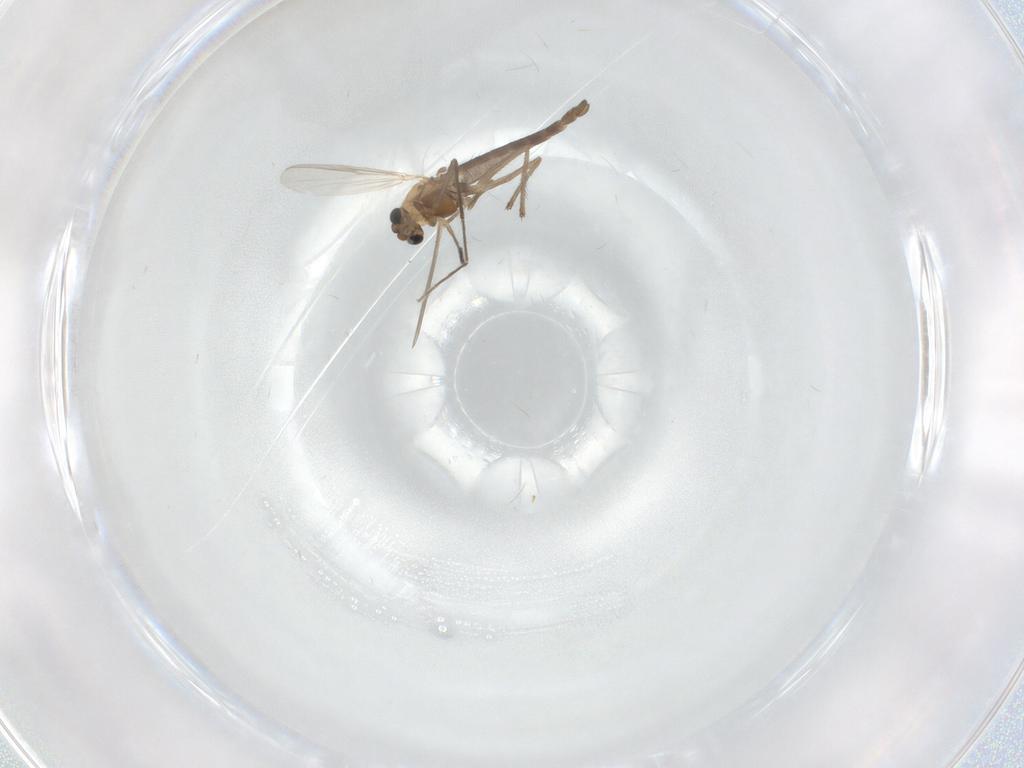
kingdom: Animalia
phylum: Arthropoda
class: Insecta
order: Diptera
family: Chironomidae
